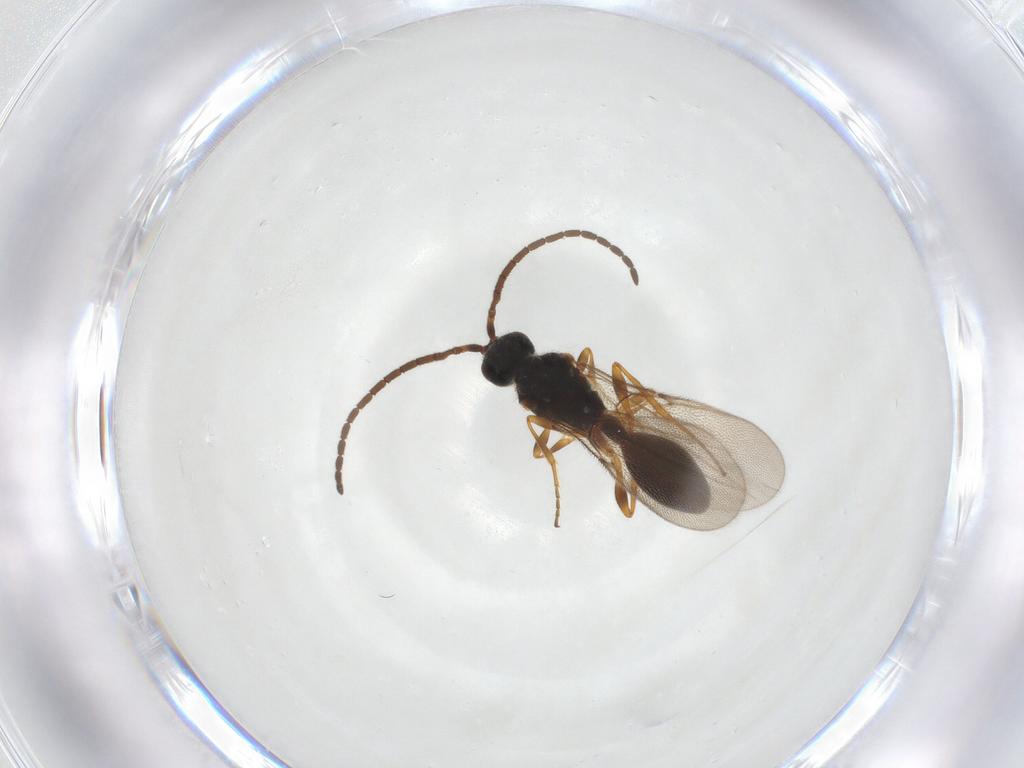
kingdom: Animalia
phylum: Arthropoda
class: Insecta
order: Hymenoptera
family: Diapriidae
